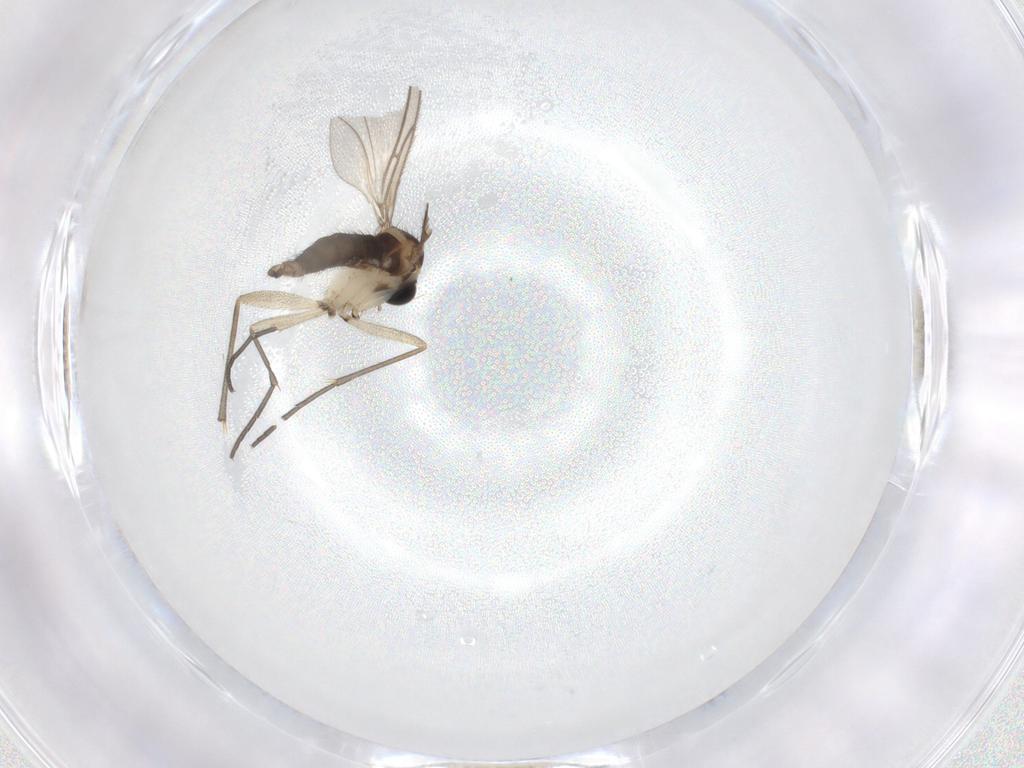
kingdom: Animalia
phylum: Arthropoda
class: Insecta
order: Diptera
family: Sciaridae
